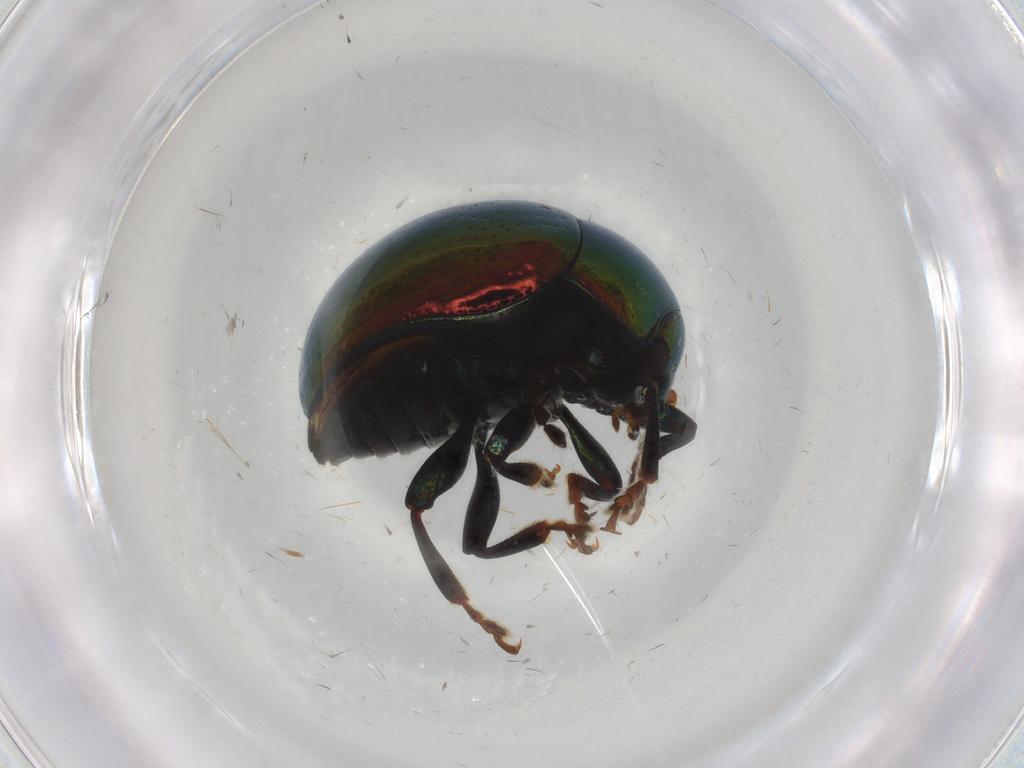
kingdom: Animalia
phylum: Arthropoda
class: Insecta
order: Coleoptera
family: Chrysomelidae
